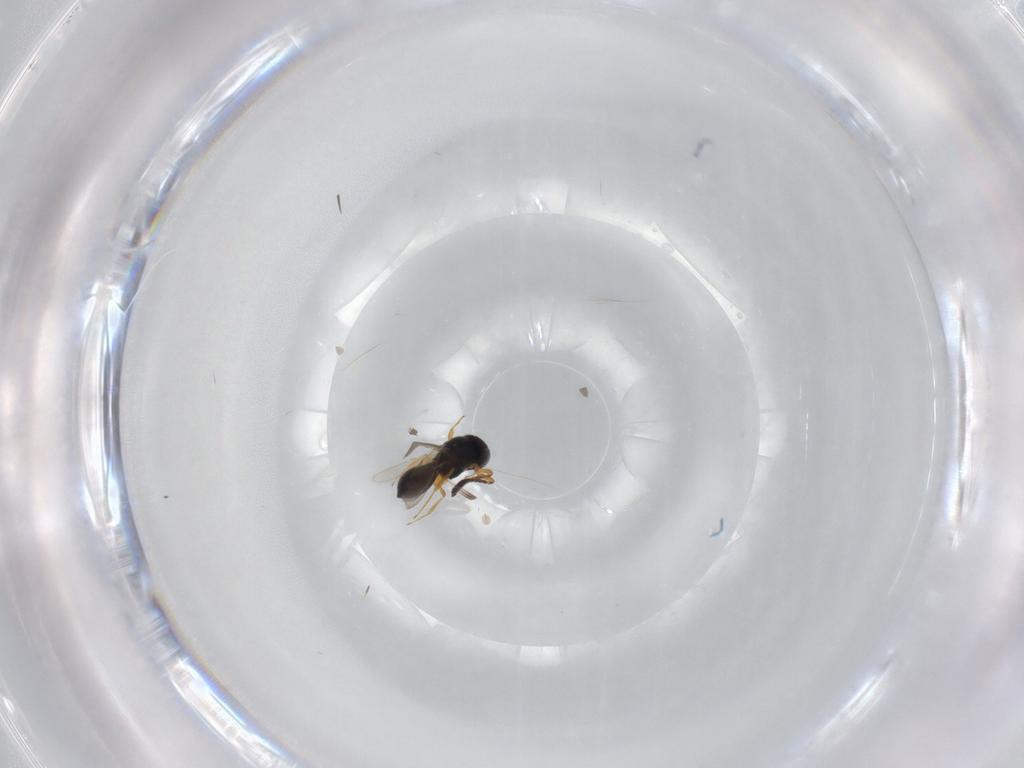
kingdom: Animalia
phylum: Arthropoda
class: Insecta
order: Hymenoptera
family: Scelionidae
